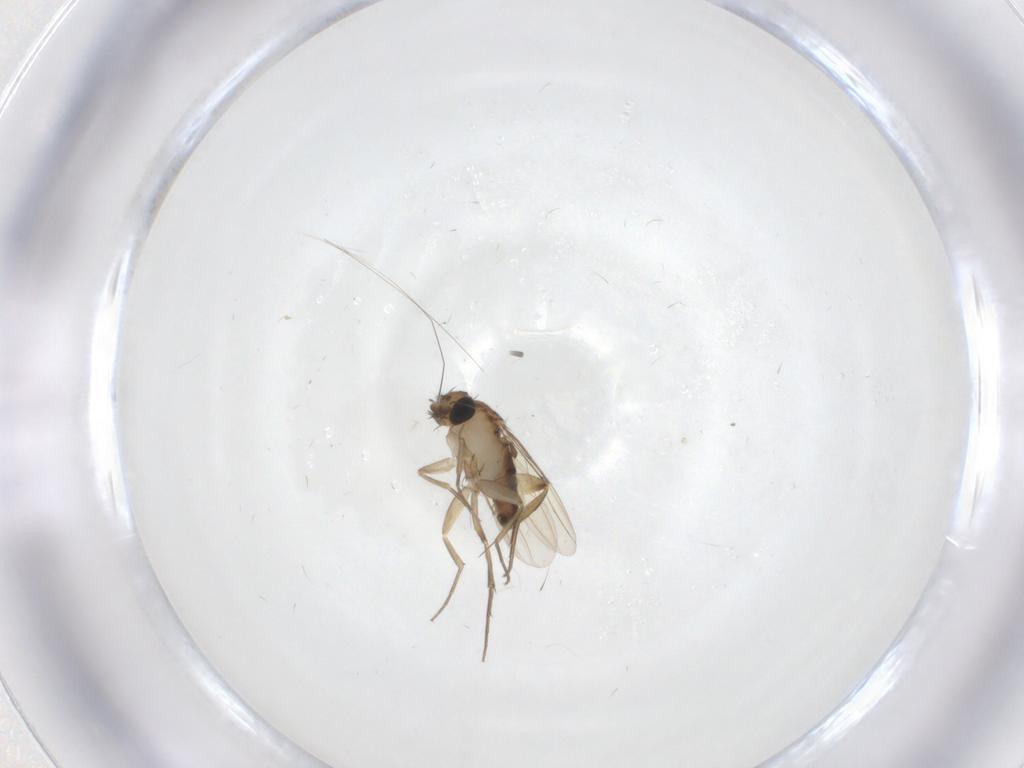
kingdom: Animalia
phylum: Arthropoda
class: Insecta
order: Diptera
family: Phoridae
